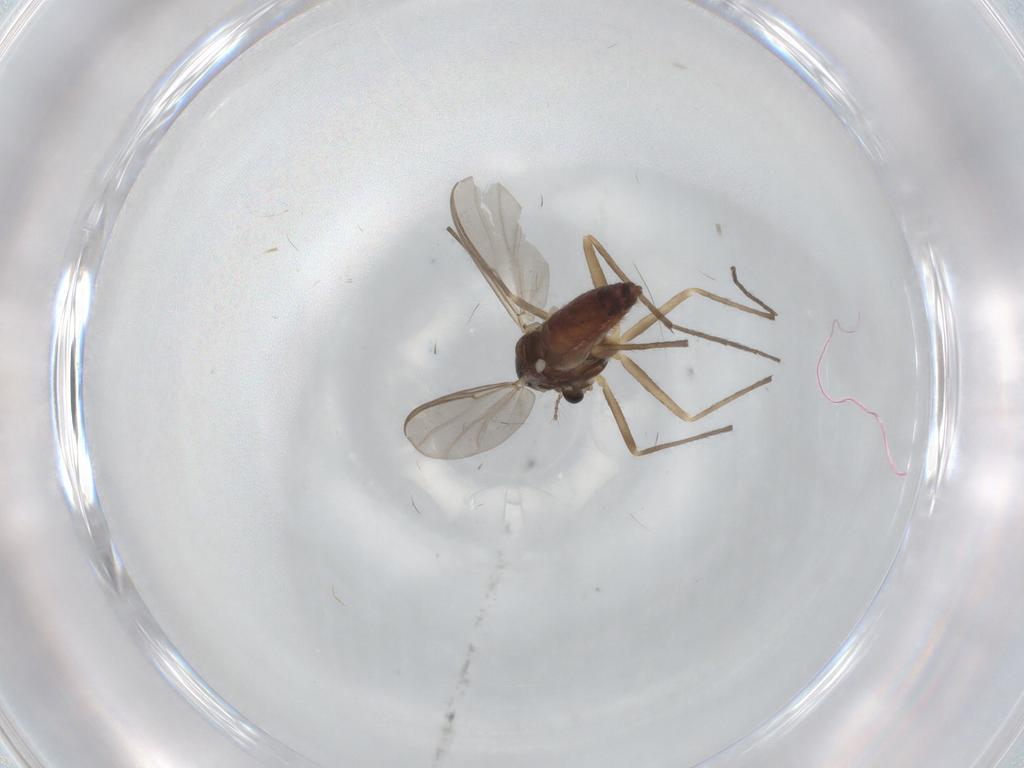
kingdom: Animalia
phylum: Arthropoda
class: Insecta
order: Diptera
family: Chironomidae
